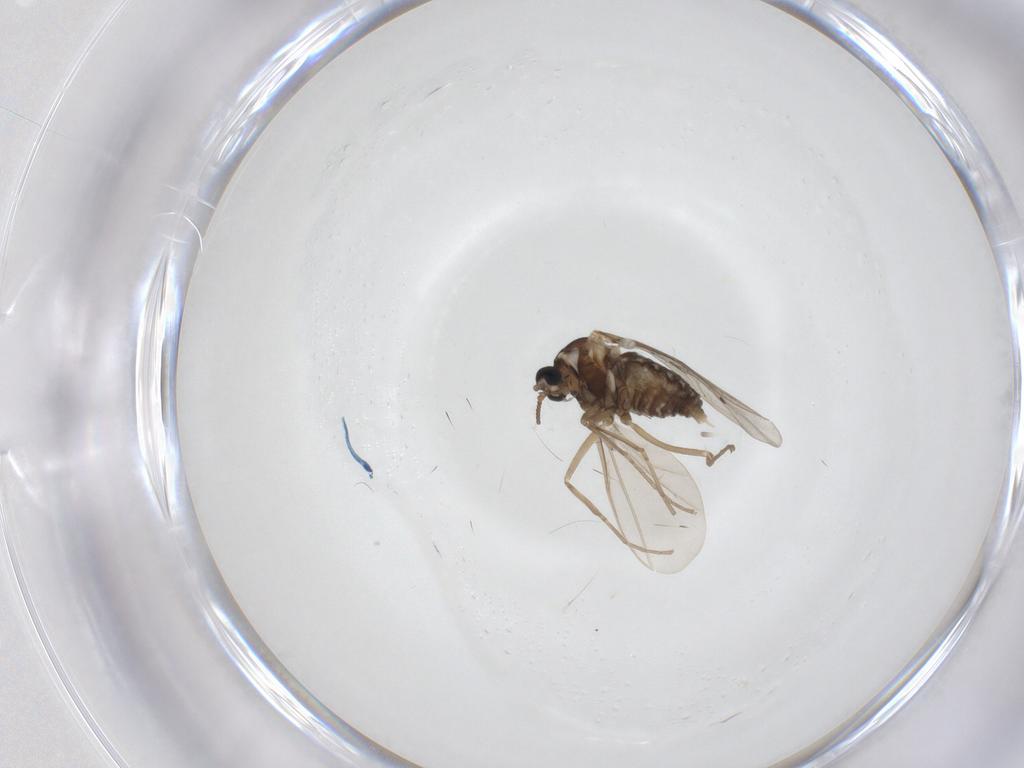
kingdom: Animalia
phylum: Arthropoda
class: Insecta
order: Diptera
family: Cecidomyiidae
